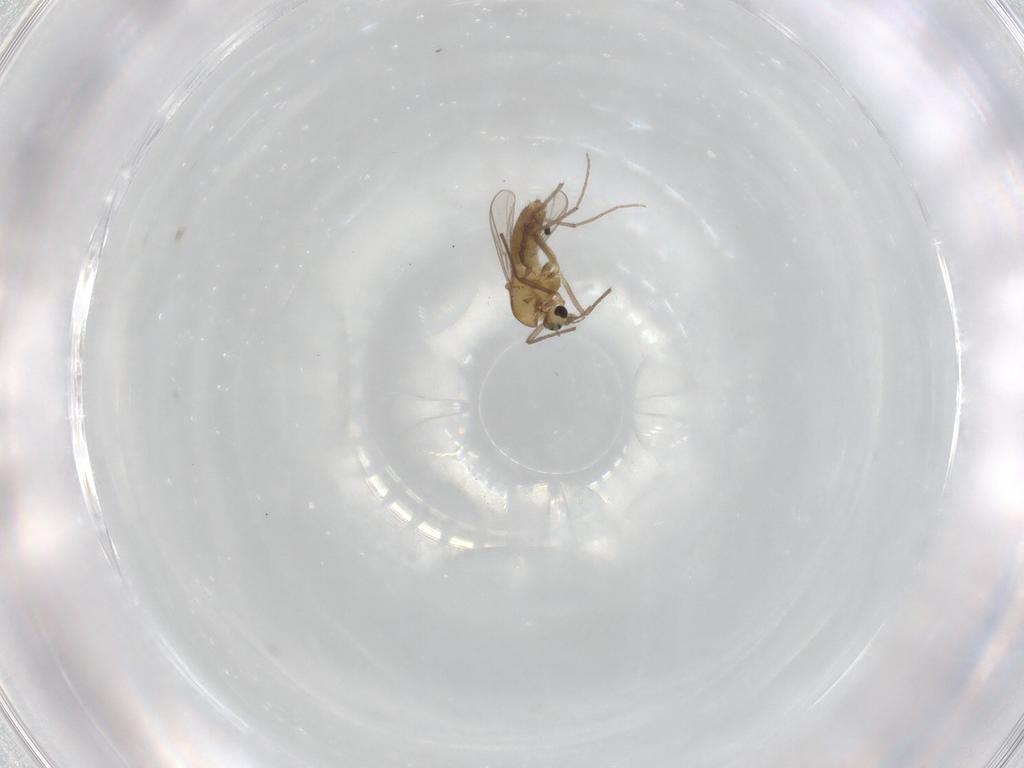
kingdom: Animalia
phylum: Arthropoda
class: Insecta
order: Diptera
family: Chironomidae
